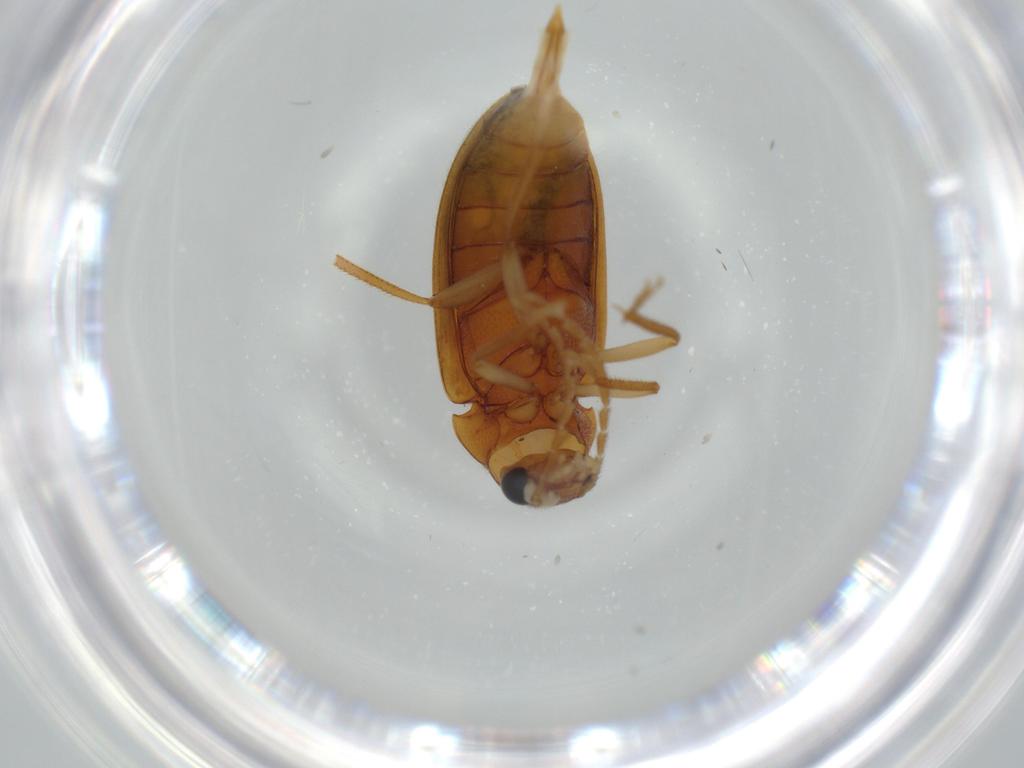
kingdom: Animalia
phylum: Arthropoda
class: Insecta
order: Coleoptera
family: Ptilodactylidae
